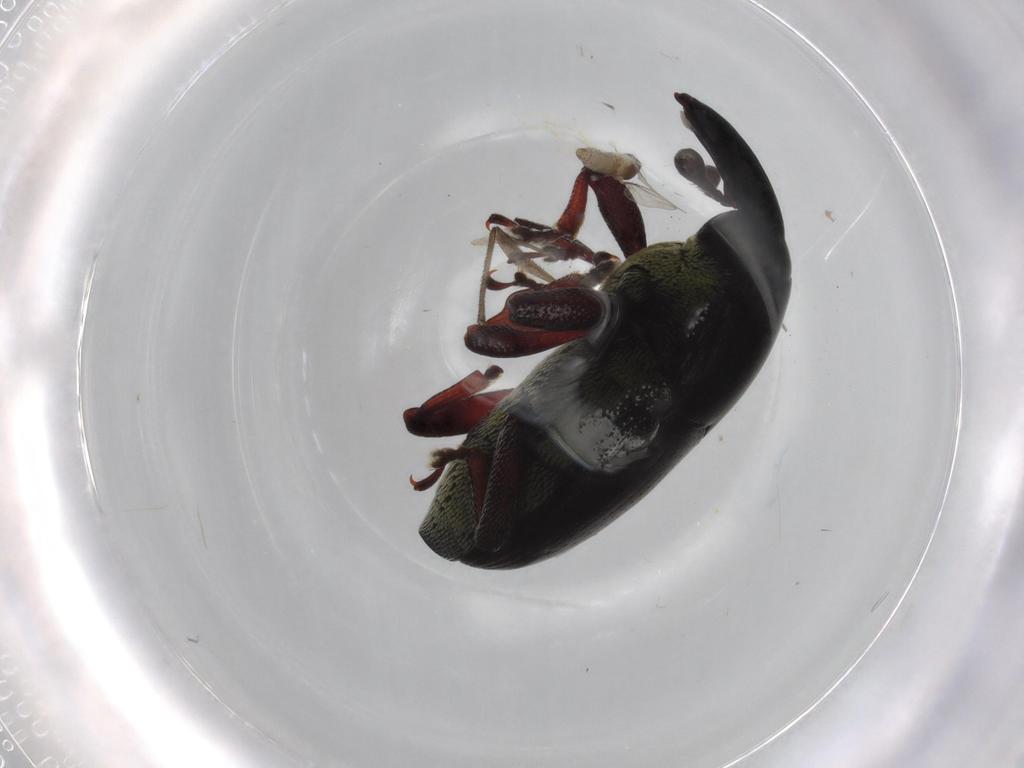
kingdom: Animalia
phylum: Arthropoda
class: Insecta
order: Coleoptera
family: Curculionidae
